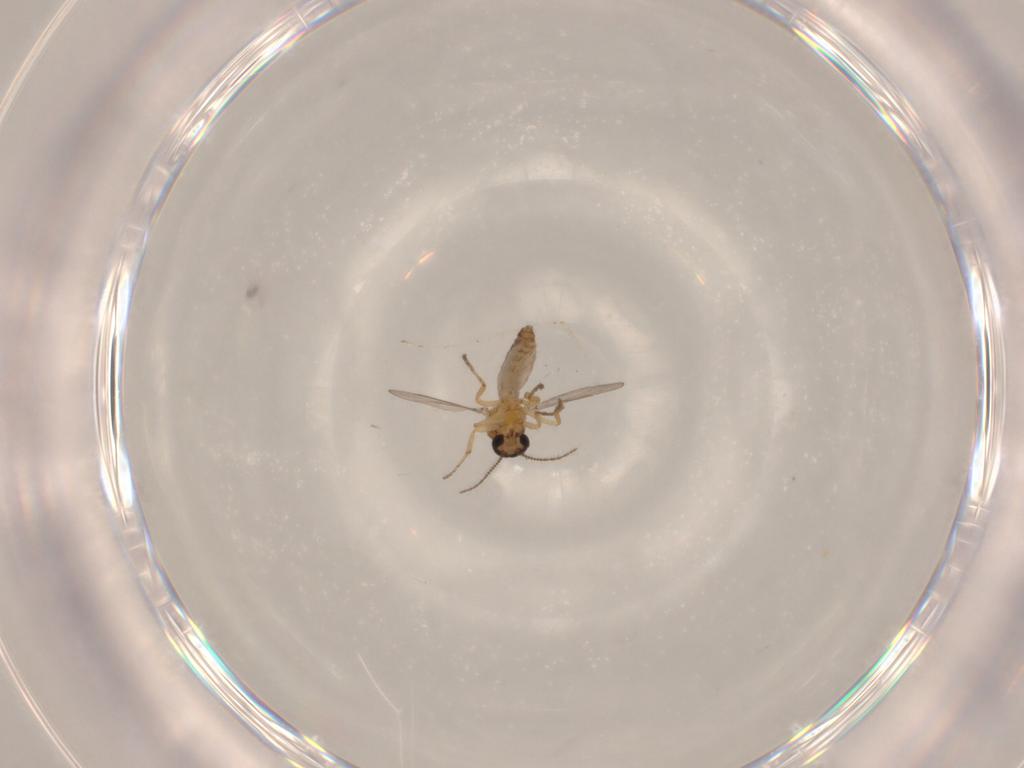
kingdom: Animalia
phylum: Arthropoda
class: Insecta
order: Diptera
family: Ceratopogonidae
